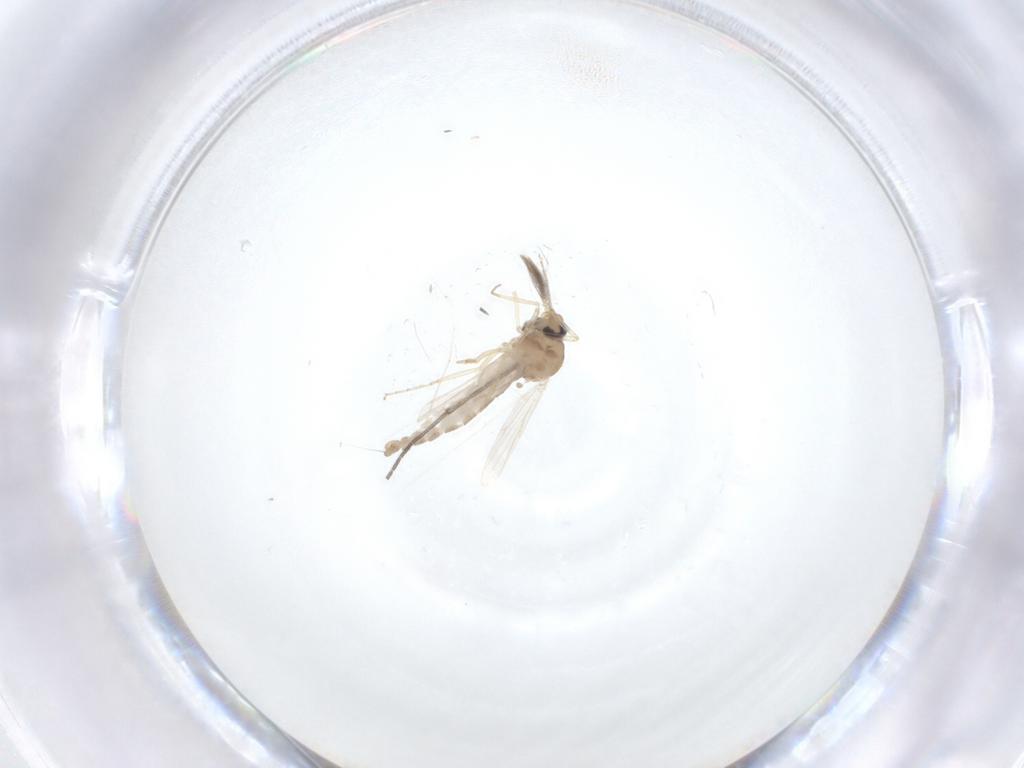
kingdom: Animalia
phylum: Arthropoda
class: Insecta
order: Diptera
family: Ceratopogonidae
